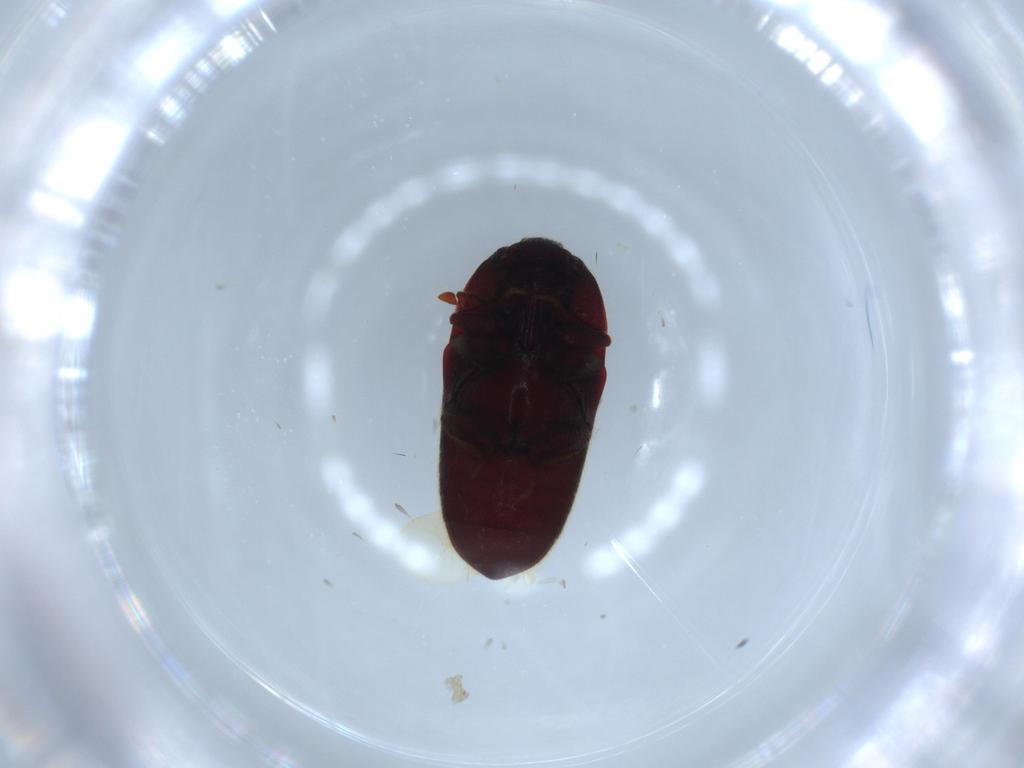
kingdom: Animalia
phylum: Arthropoda
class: Insecta
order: Coleoptera
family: Throscidae
